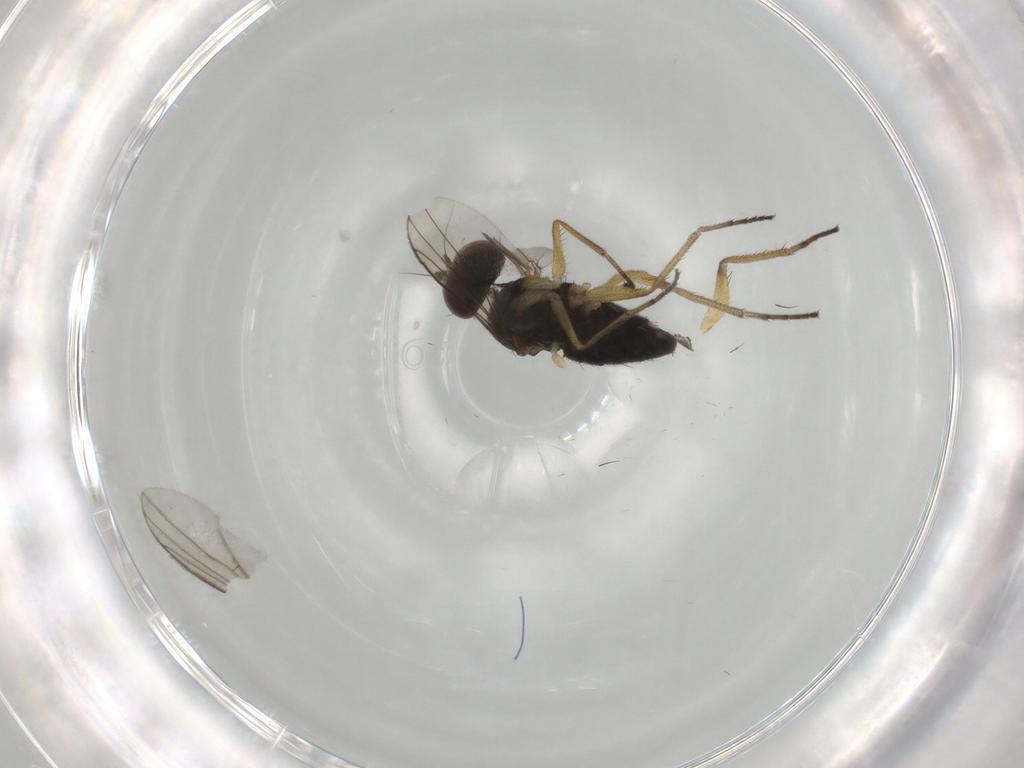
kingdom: Animalia
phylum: Arthropoda
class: Insecta
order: Diptera
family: Dolichopodidae
